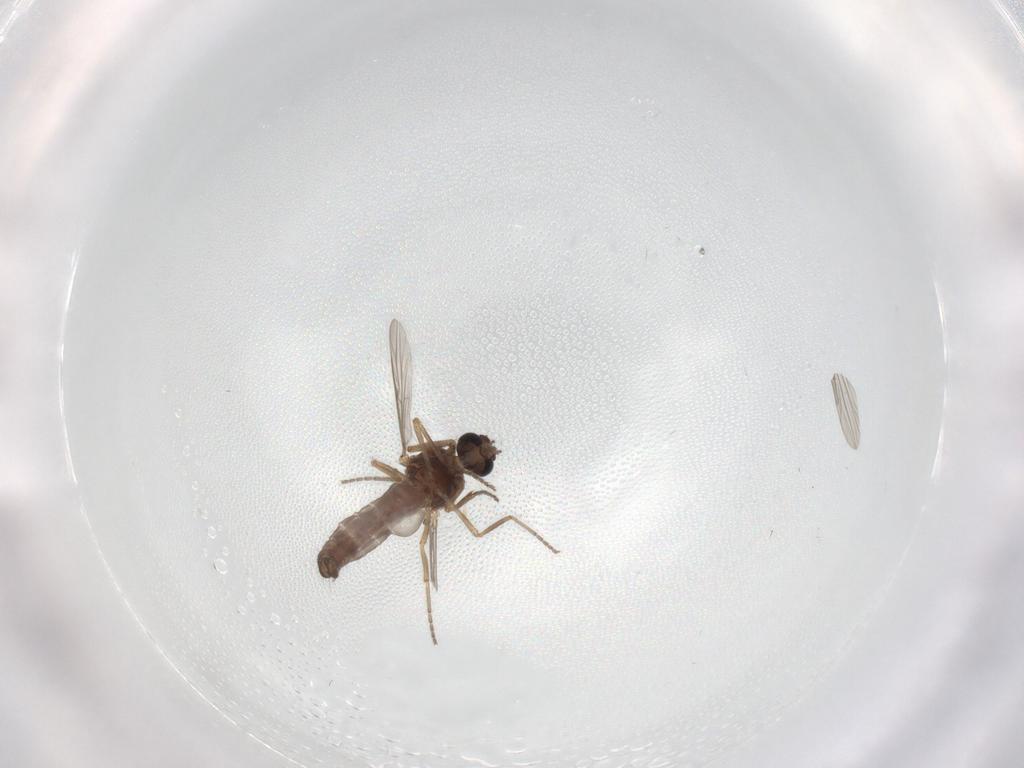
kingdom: Animalia
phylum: Arthropoda
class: Insecta
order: Diptera
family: Ceratopogonidae
